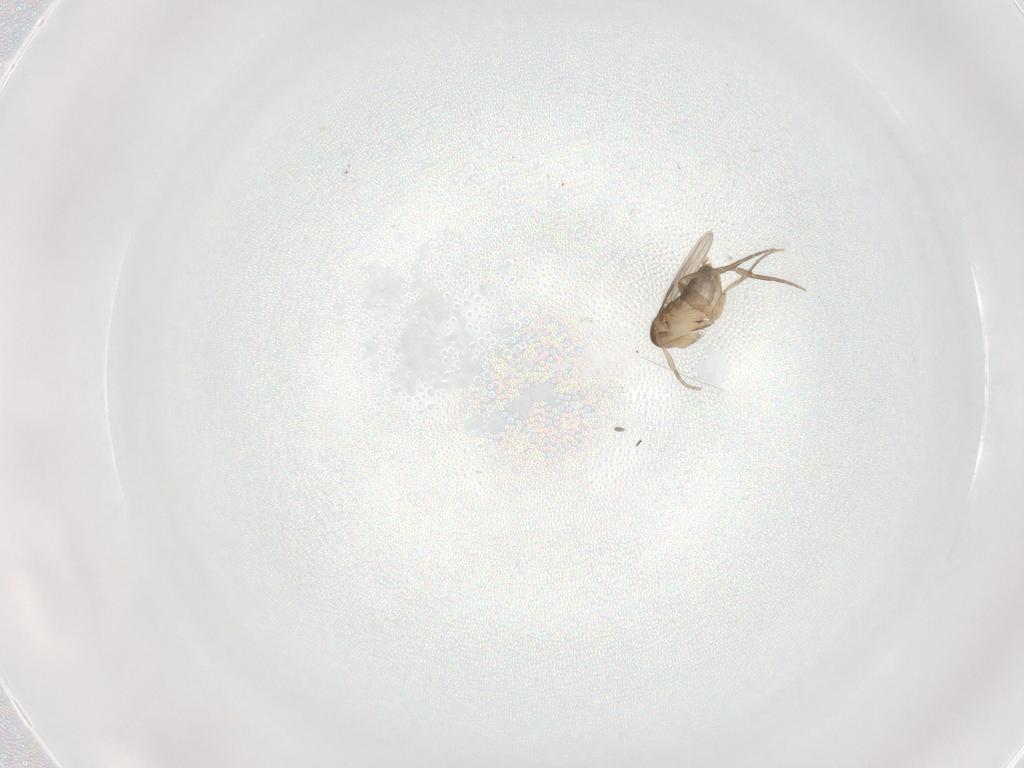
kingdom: Animalia
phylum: Arthropoda
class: Insecta
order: Diptera
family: Phoridae
